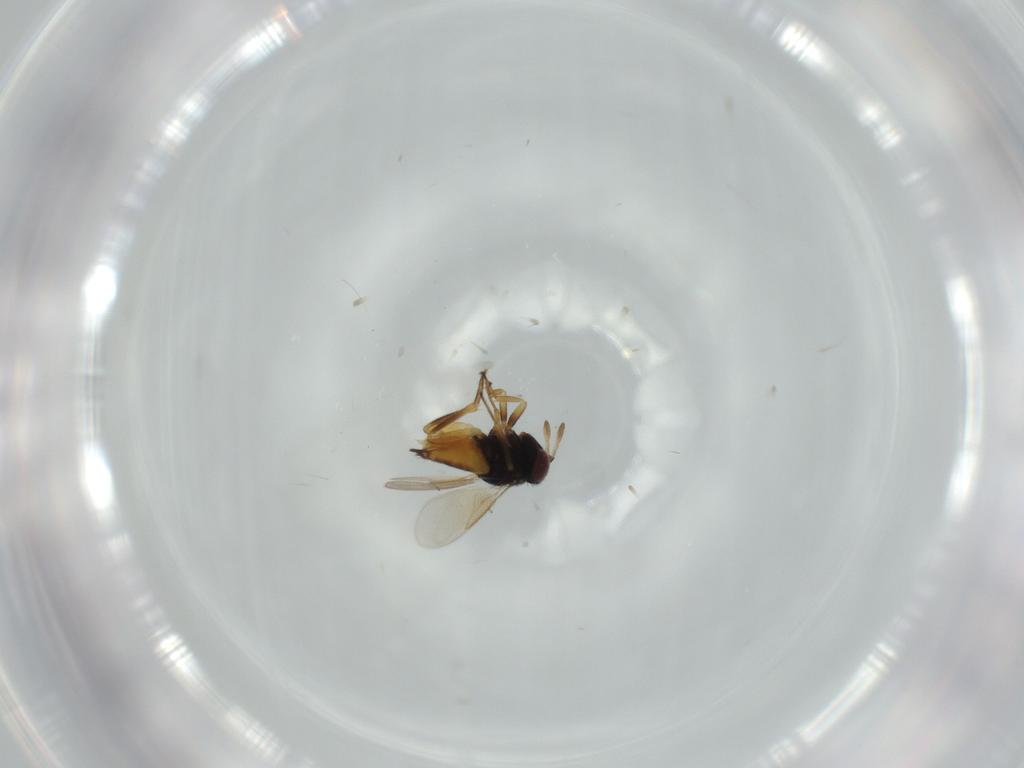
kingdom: Animalia
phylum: Arthropoda
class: Insecta
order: Hymenoptera
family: Aphelinidae
